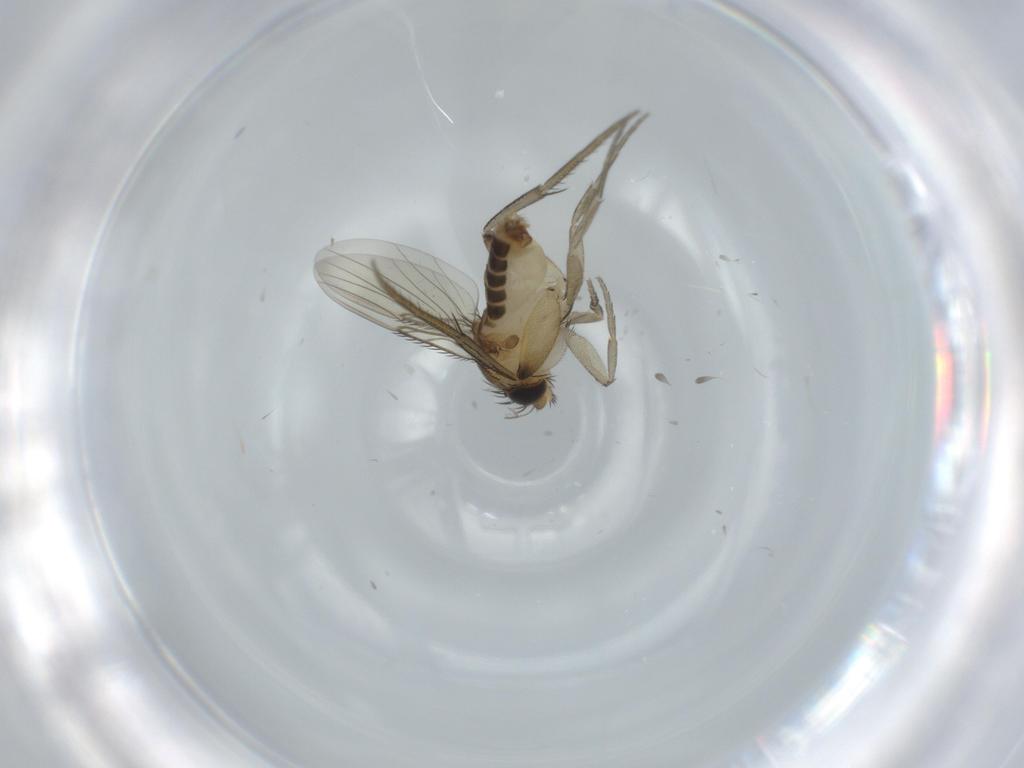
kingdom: Animalia
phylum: Arthropoda
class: Insecta
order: Diptera
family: Phoridae
